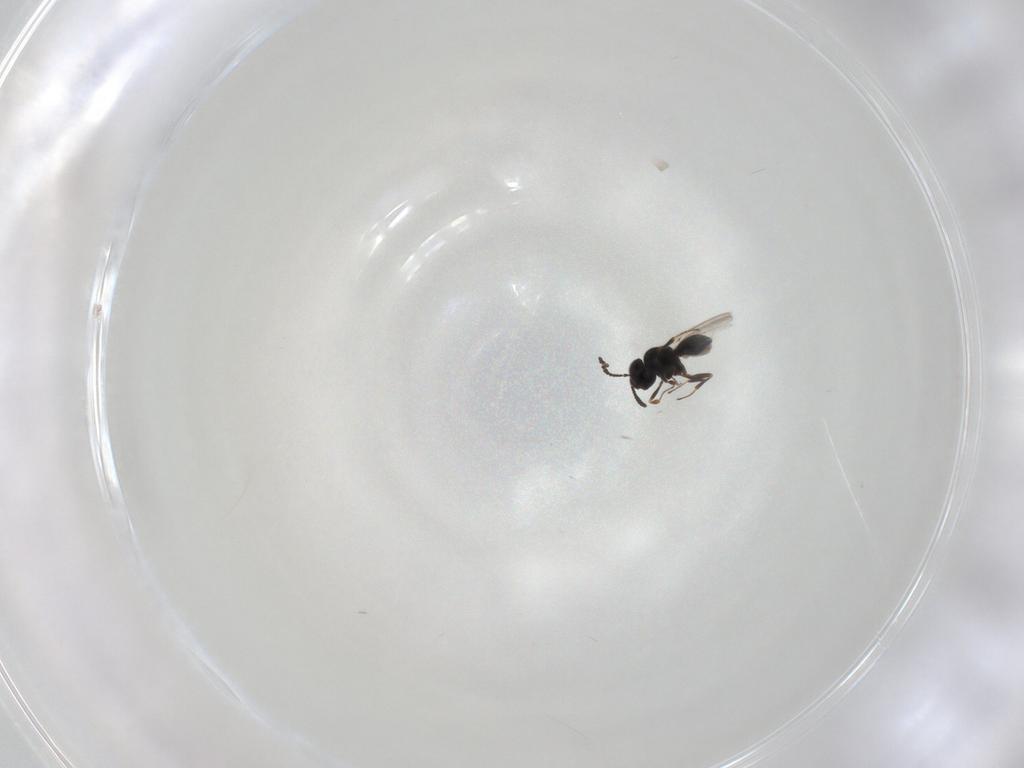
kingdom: Animalia
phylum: Arthropoda
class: Insecta
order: Hymenoptera
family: Scelionidae
